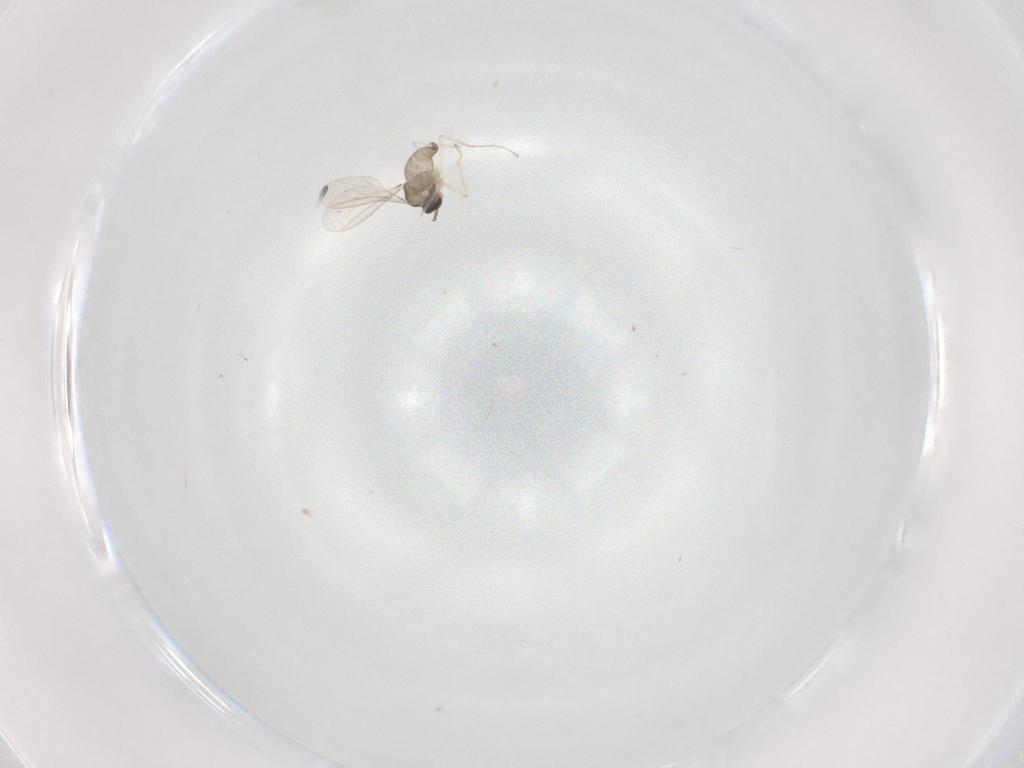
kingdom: Animalia
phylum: Arthropoda
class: Insecta
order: Diptera
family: Cecidomyiidae
